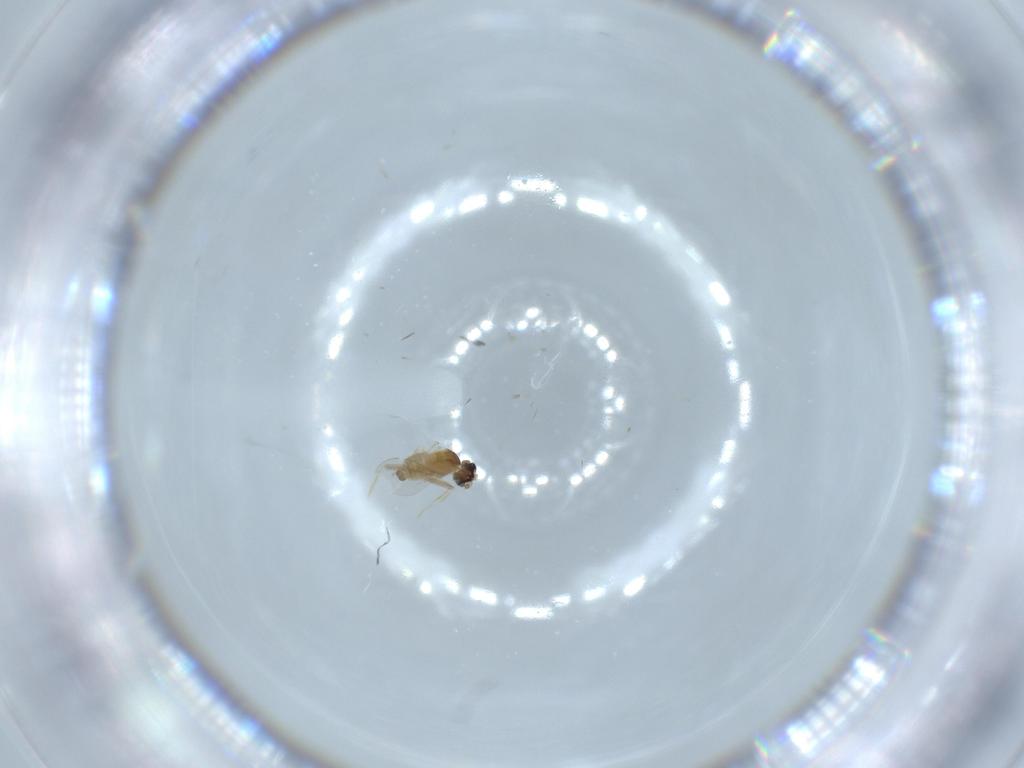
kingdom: Animalia
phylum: Arthropoda
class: Insecta
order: Diptera
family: Cecidomyiidae
